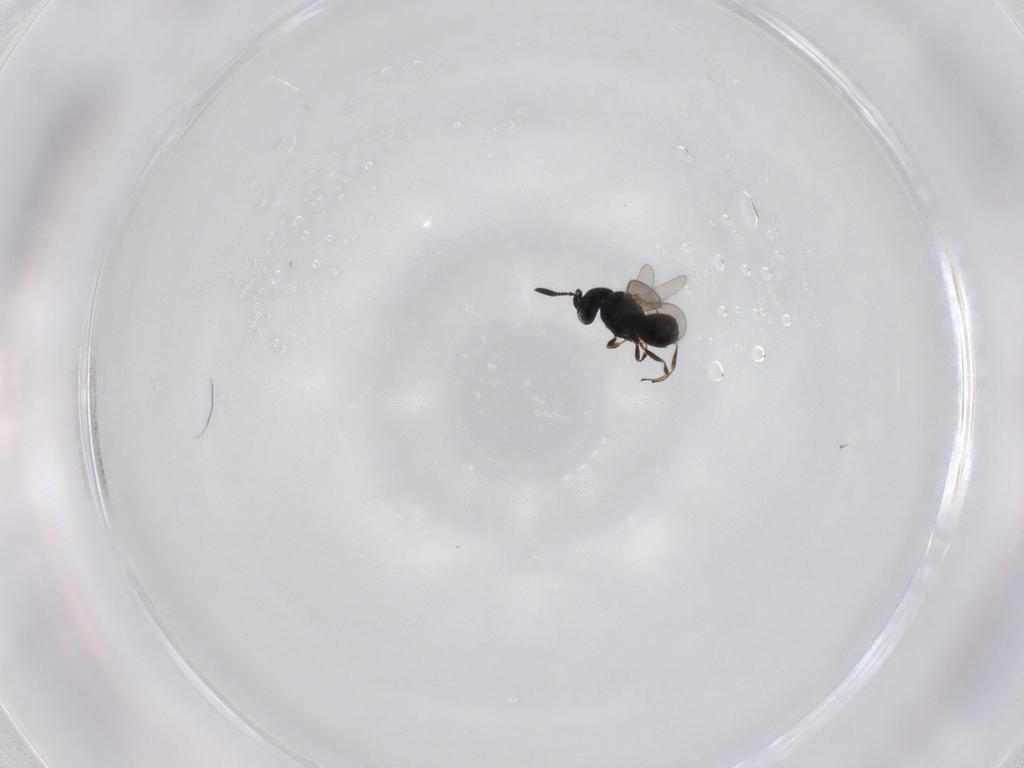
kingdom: Animalia
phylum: Arthropoda
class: Insecta
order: Hymenoptera
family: Scelionidae
